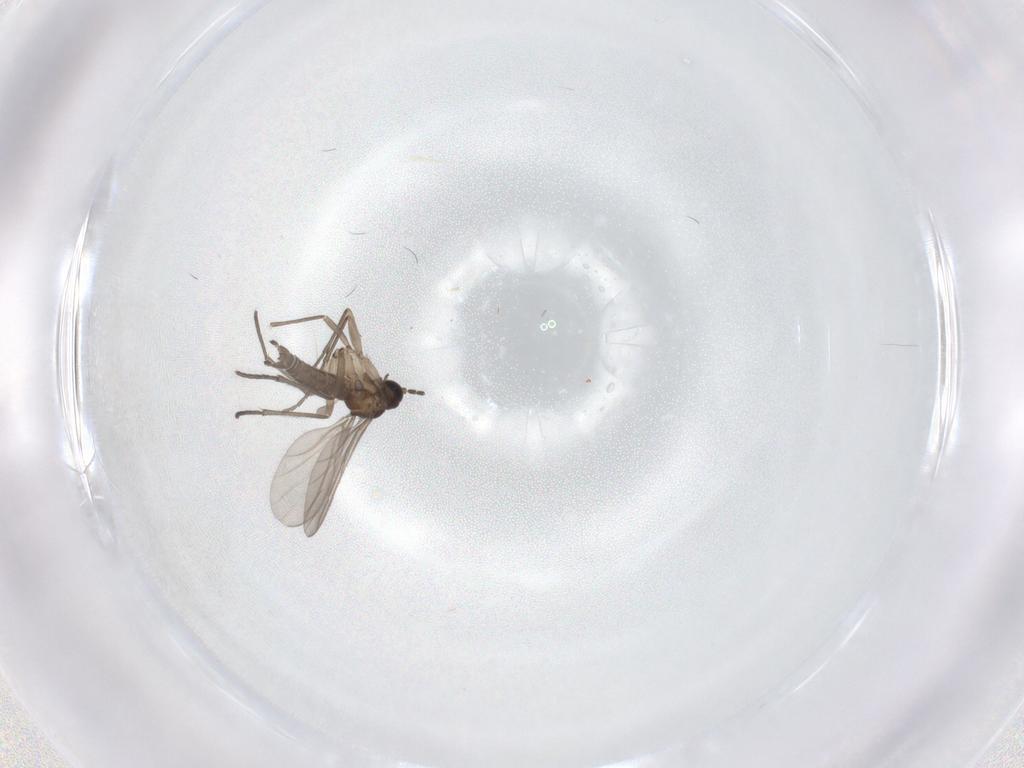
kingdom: Animalia
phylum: Arthropoda
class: Insecta
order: Diptera
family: Sciaridae
